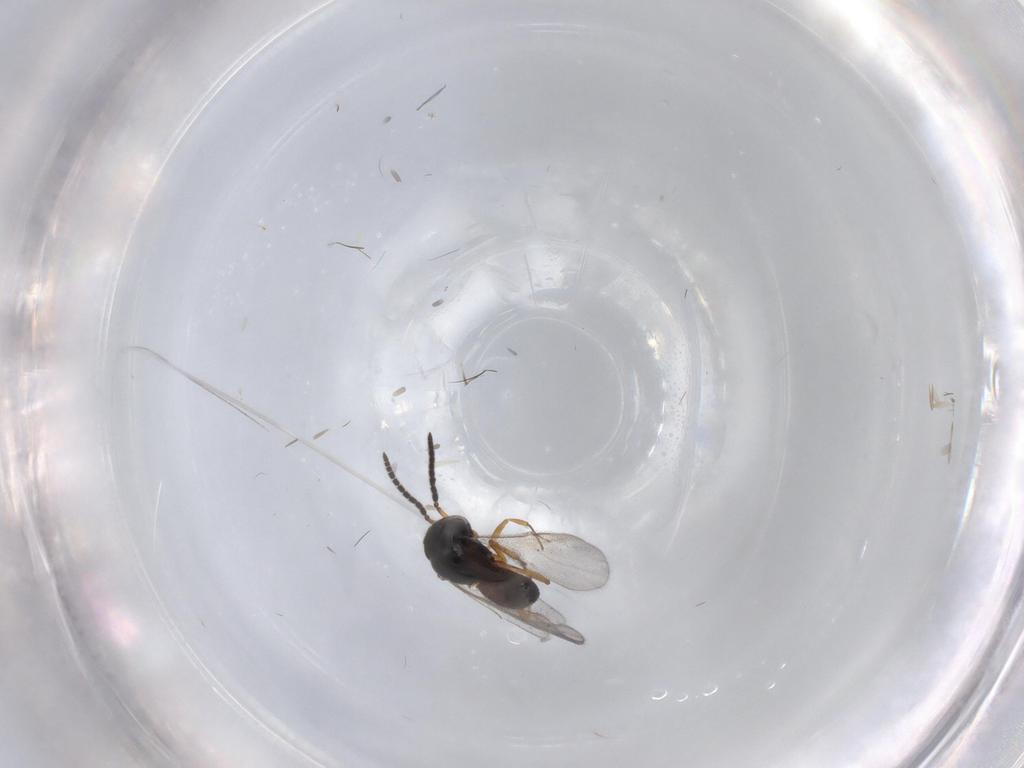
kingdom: Animalia
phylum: Arthropoda
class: Insecta
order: Hymenoptera
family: Scelionidae
